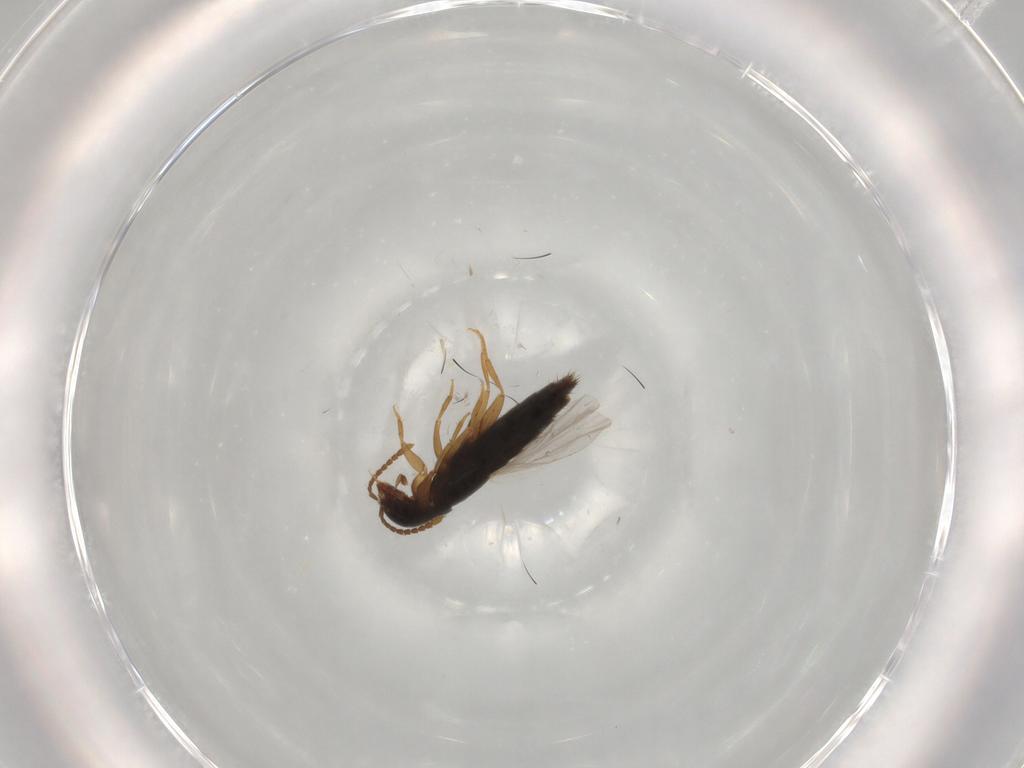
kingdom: Animalia
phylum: Arthropoda
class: Insecta
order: Coleoptera
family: Staphylinidae
